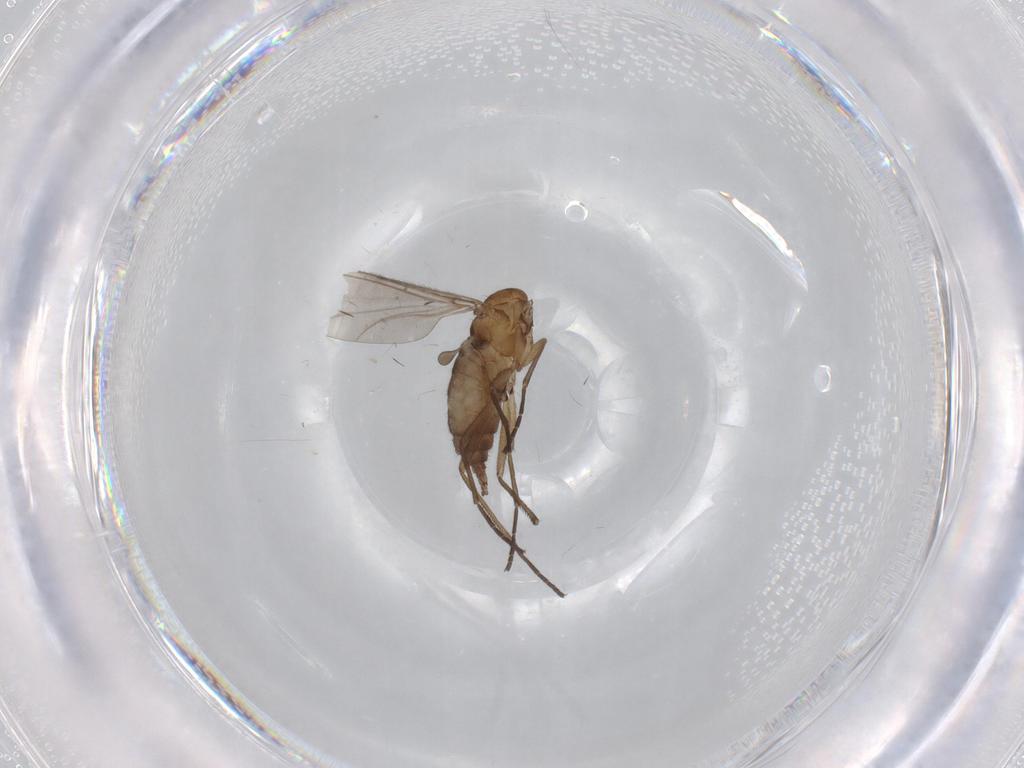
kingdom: Animalia
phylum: Arthropoda
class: Insecta
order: Diptera
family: Sciaridae
